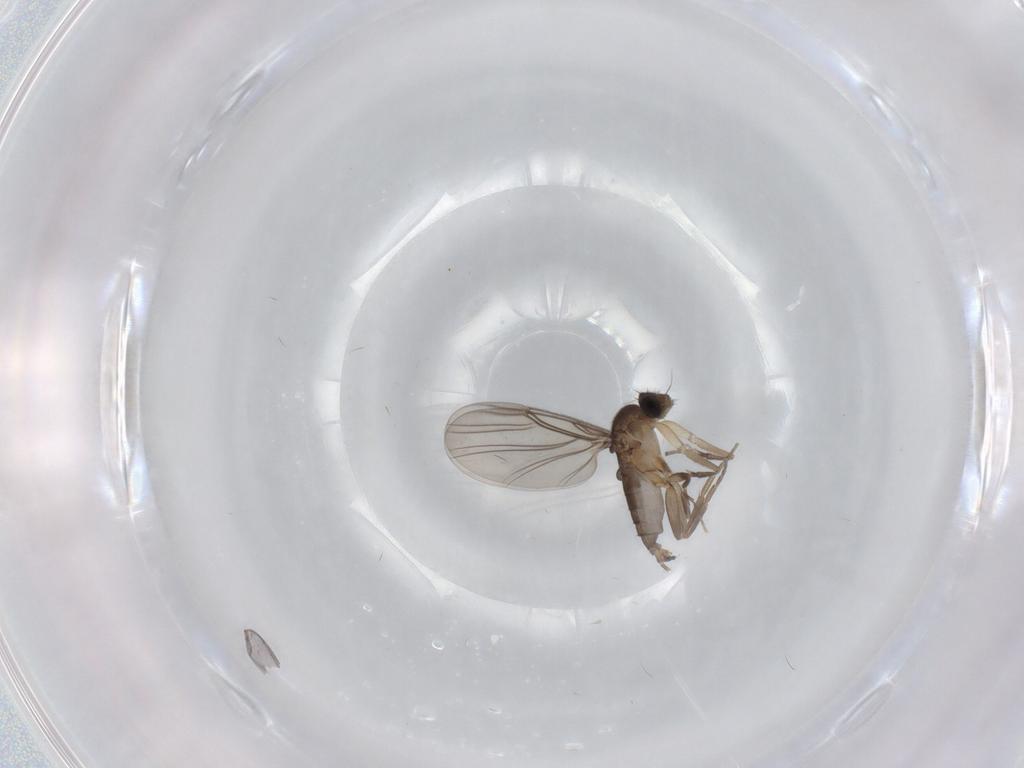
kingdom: Animalia
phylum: Arthropoda
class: Insecta
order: Diptera
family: Phoridae
